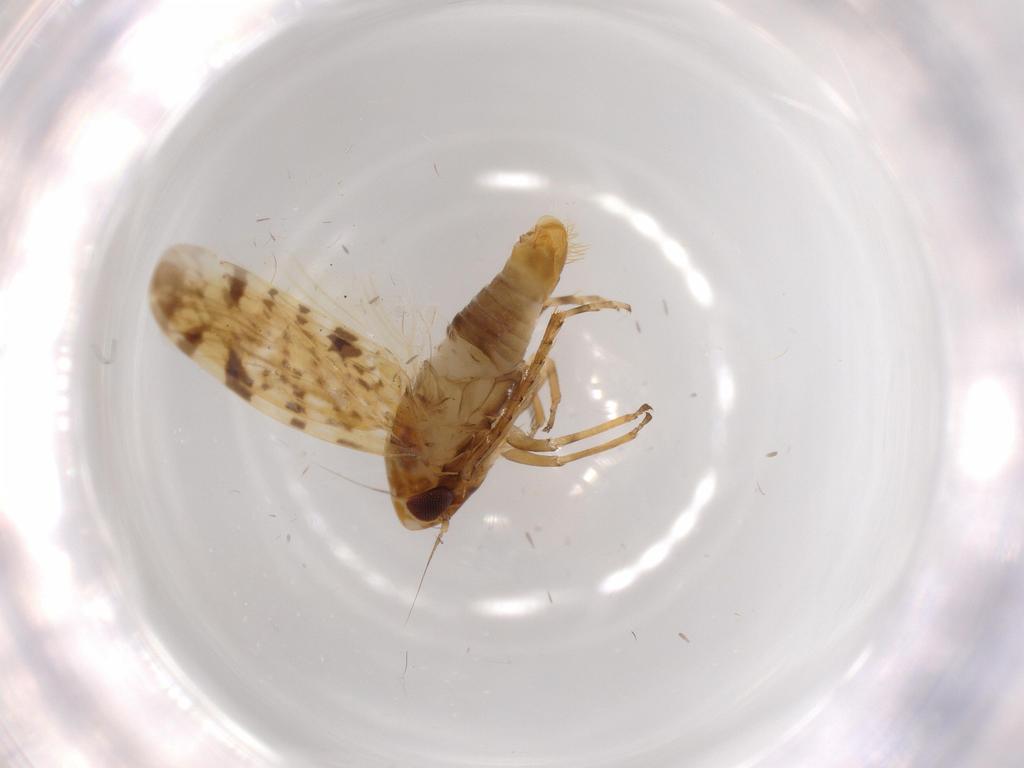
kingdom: Animalia
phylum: Arthropoda
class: Insecta
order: Hemiptera
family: Cicadellidae
